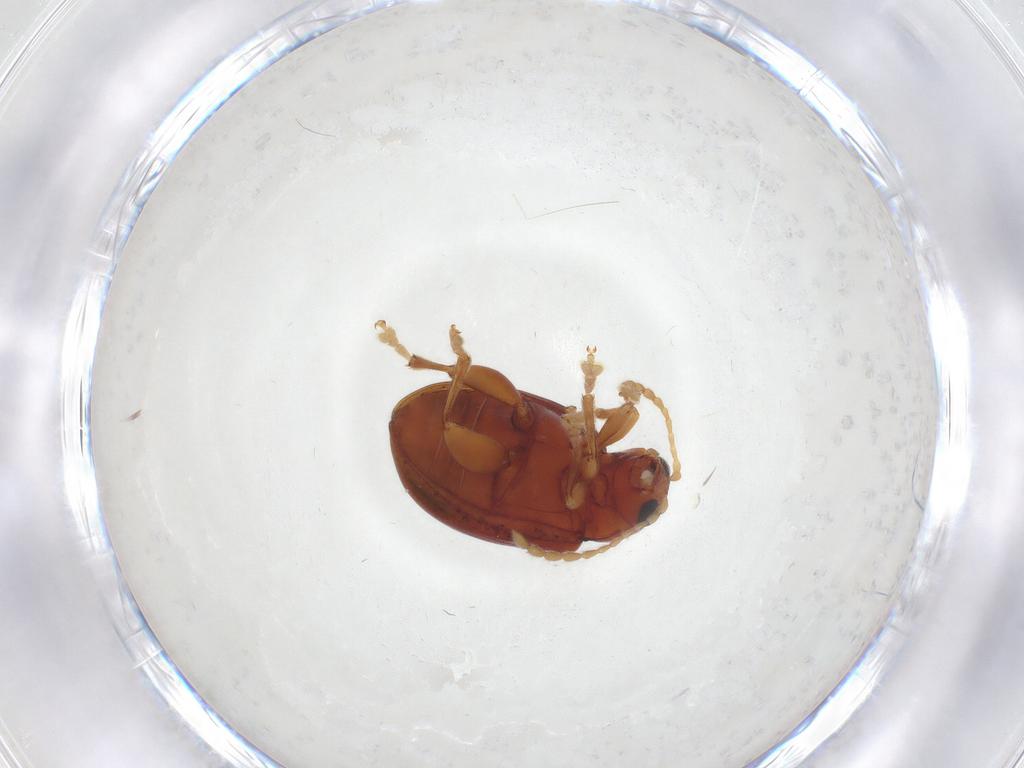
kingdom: Animalia
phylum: Arthropoda
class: Insecta
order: Coleoptera
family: Chrysomelidae
